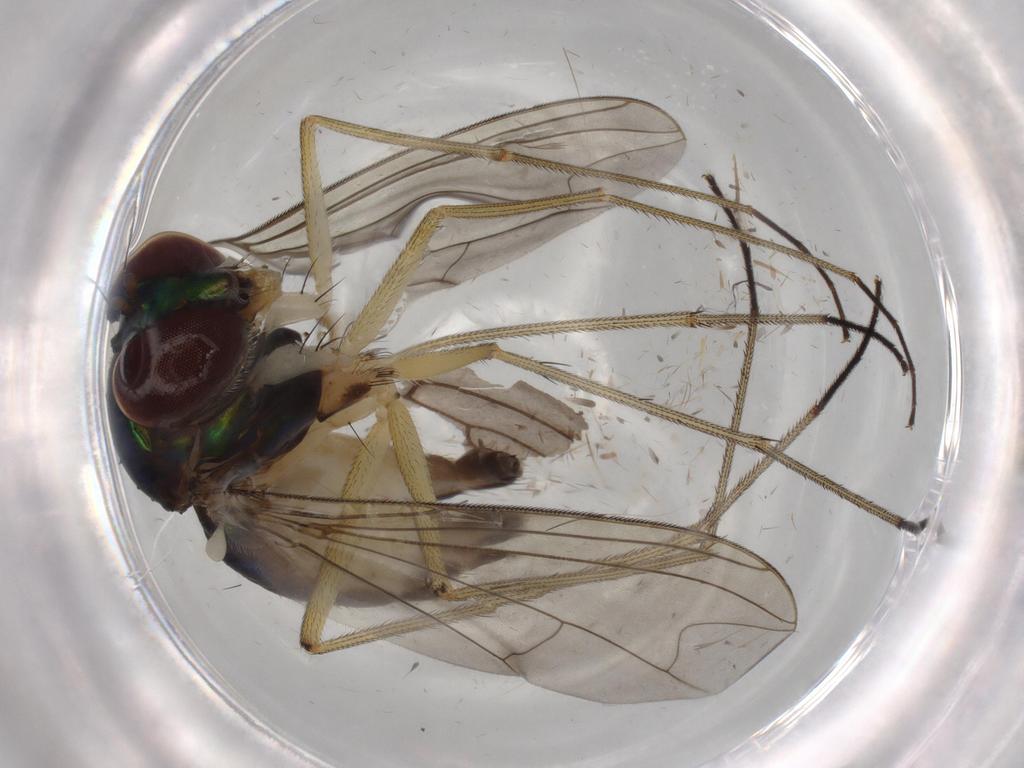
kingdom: Animalia
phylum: Arthropoda
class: Insecta
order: Diptera
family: Dolichopodidae
